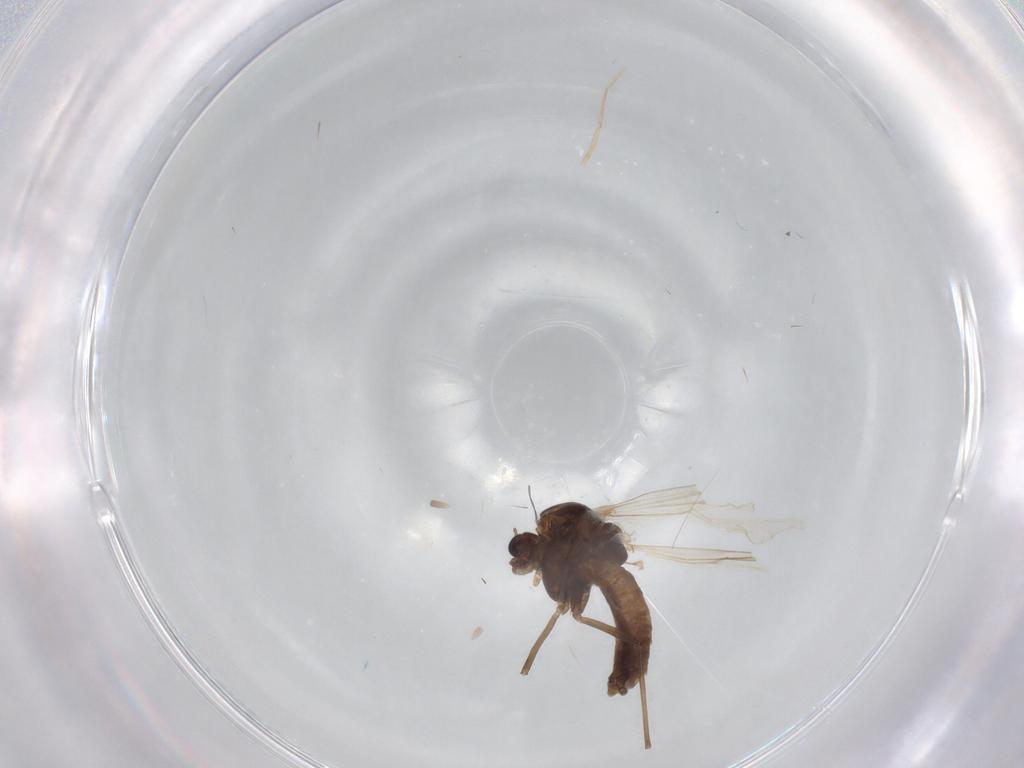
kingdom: Animalia
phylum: Arthropoda
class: Insecta
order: Diptera
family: Chironomidae
